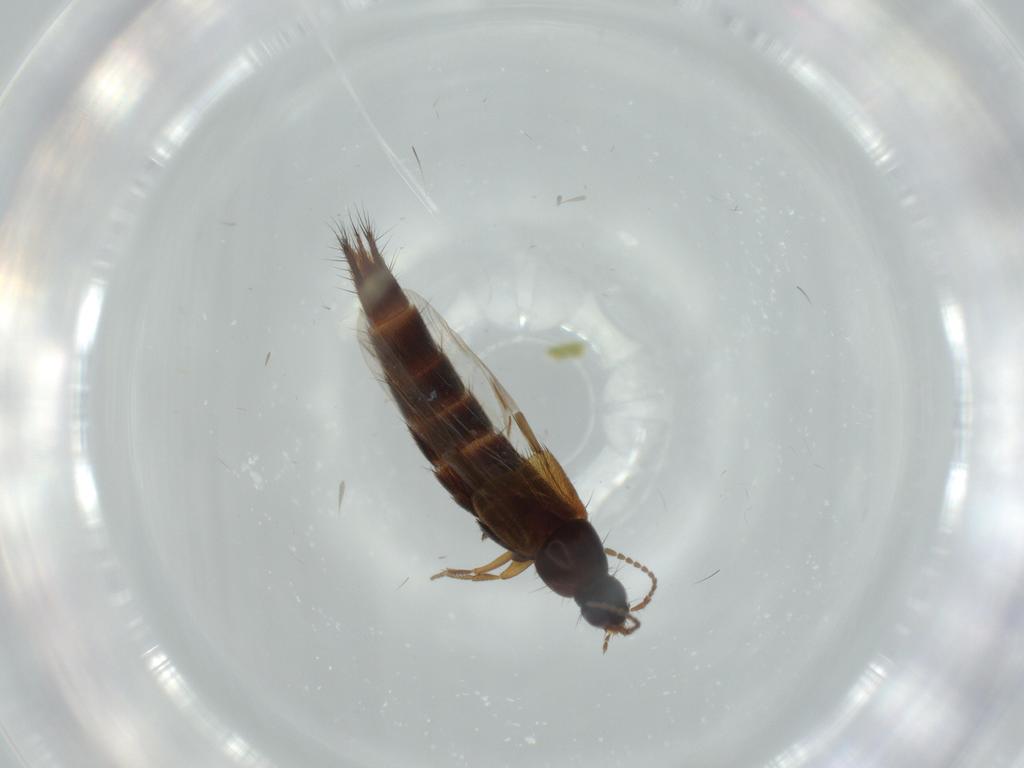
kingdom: Animalia
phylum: Arthropoda
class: Insecta
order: Coleoptera
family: Staphylinidae
